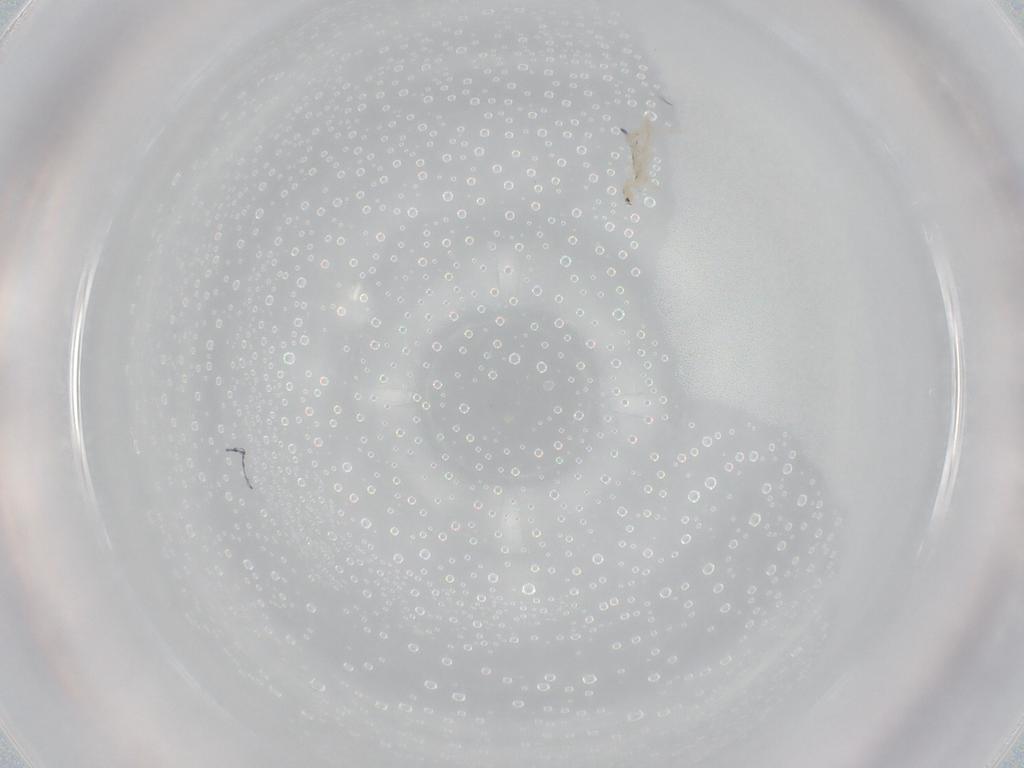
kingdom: Animalia
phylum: Arthropoda
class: Collembola
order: Entomobryomorpha
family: Entomobryidae
